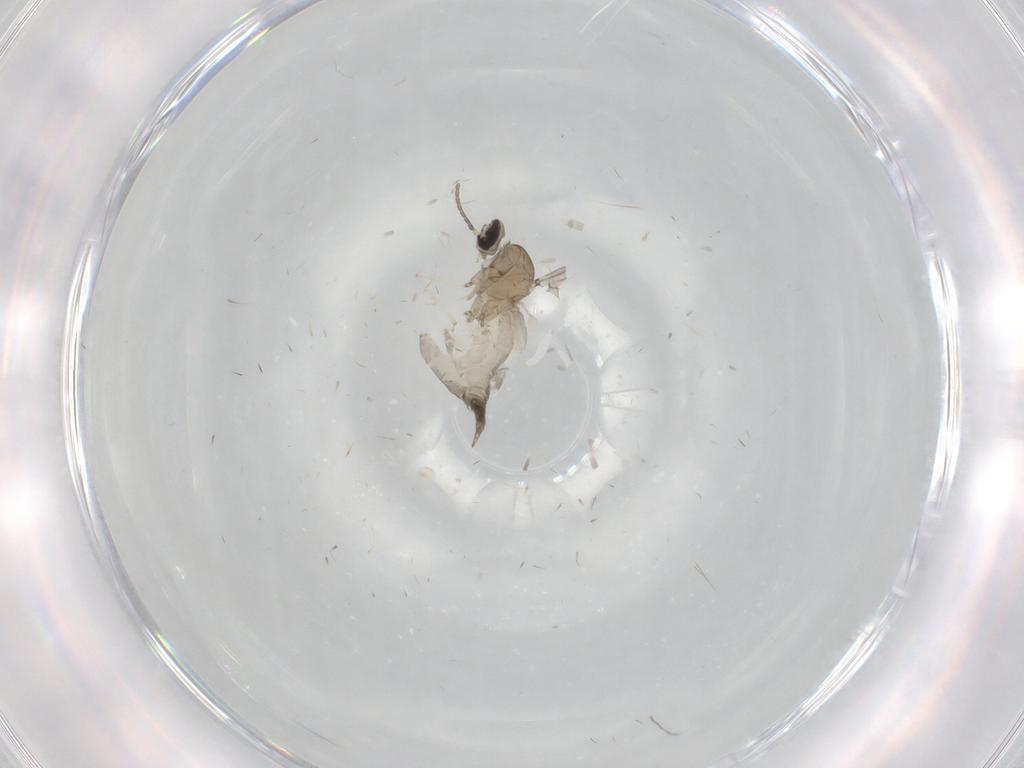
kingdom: Animalia
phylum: Arthropoda
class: Insecta
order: Diptera
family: Cecidomyiidae
